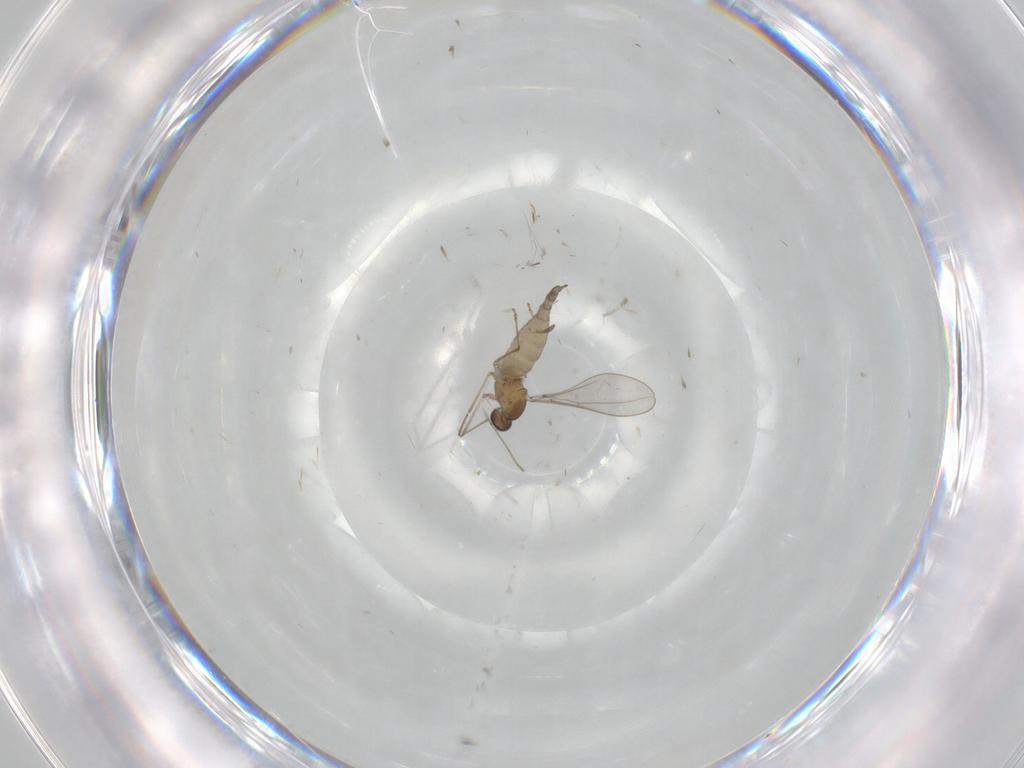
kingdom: Animalia
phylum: Arthropoda
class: Insecta
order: Diptera
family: Cecidomyiidae
